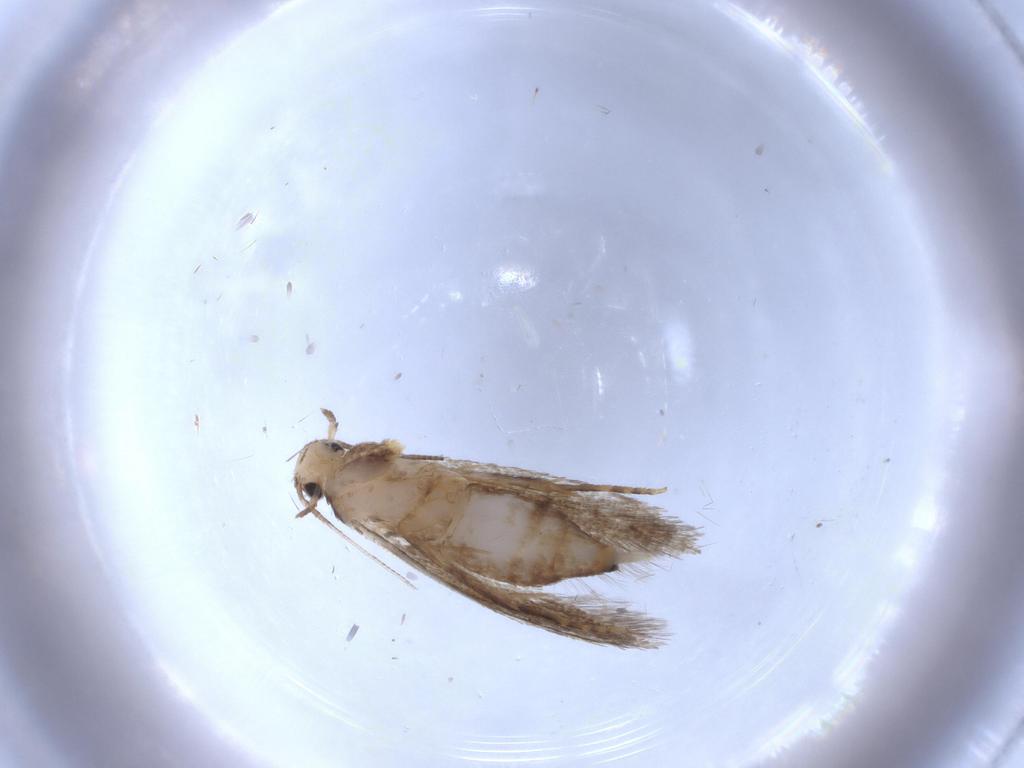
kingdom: Animalia
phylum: Arthropoda
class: Insecta
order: Lepidoptera
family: Tineidae
